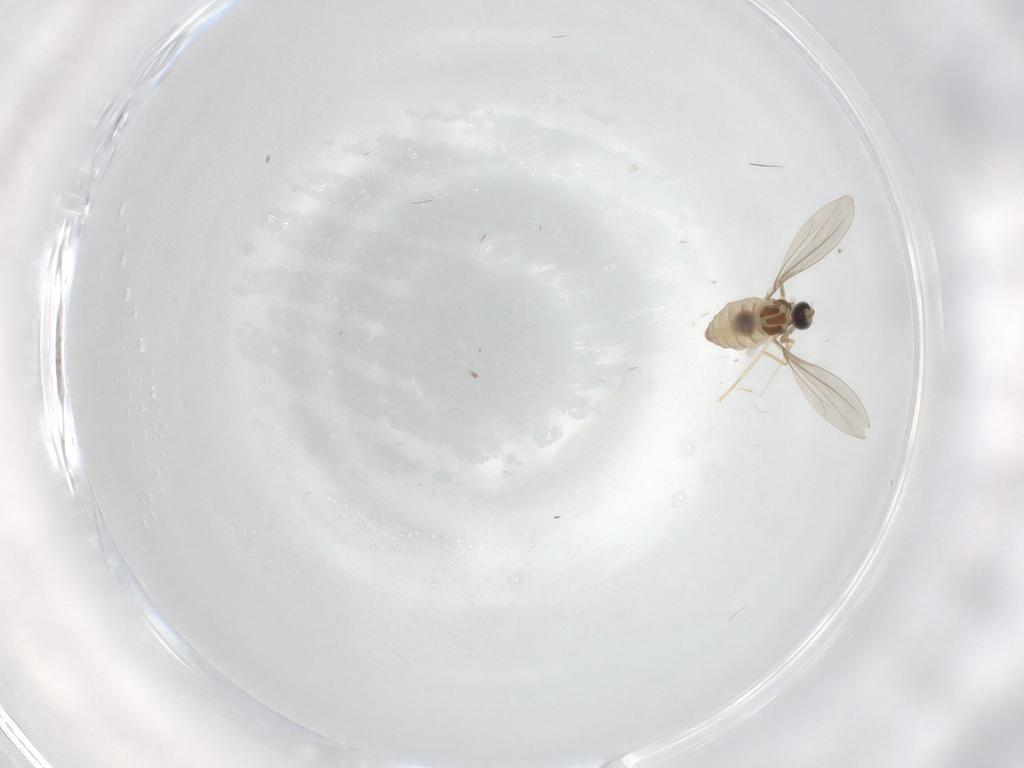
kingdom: Animalia
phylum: Arthropoda
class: Insecta
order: Diptera
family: Cecidomyiidae
